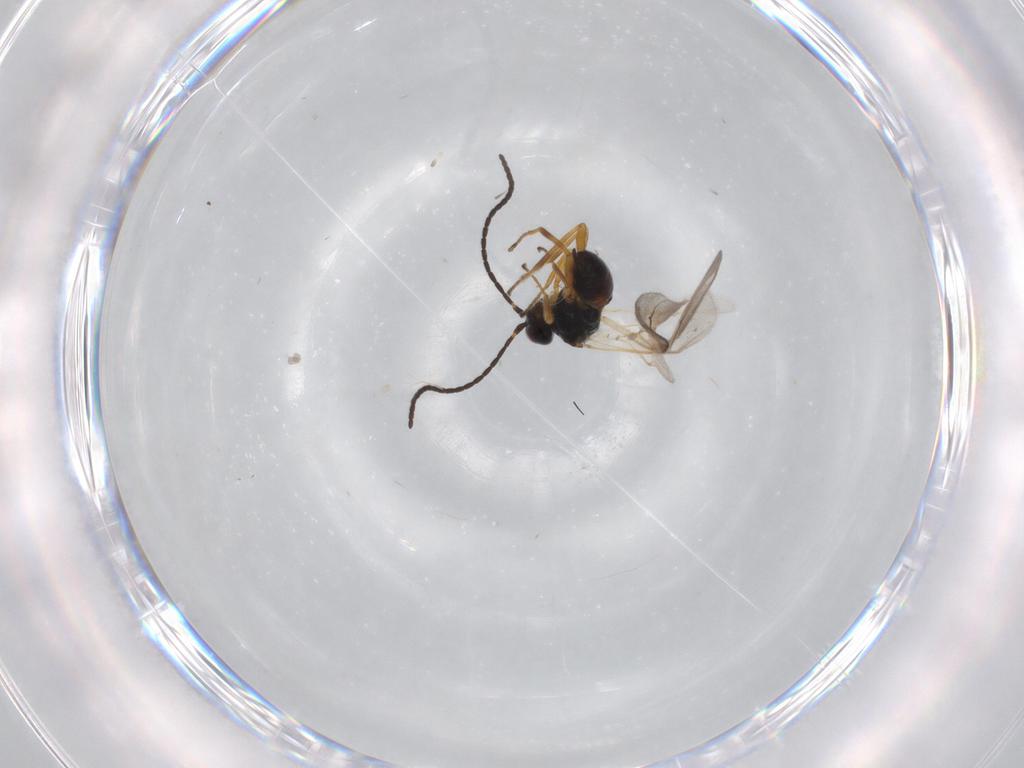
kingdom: Animalia
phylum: Arthropoda
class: Insecta
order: Hymenoptera
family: Braconidae
